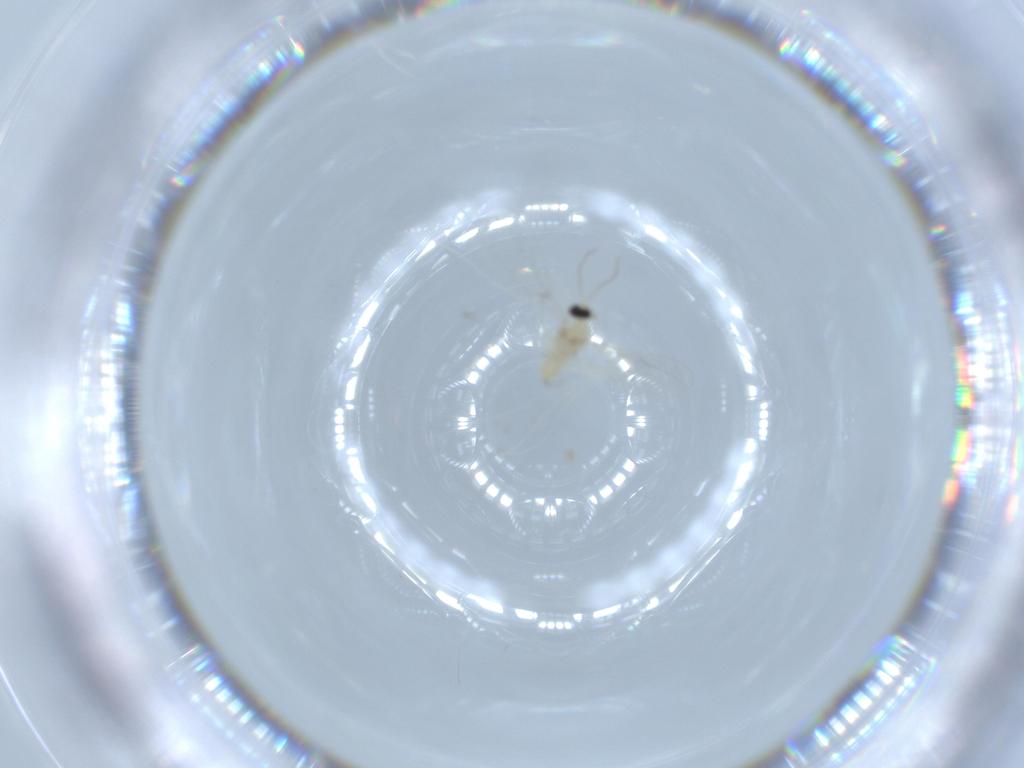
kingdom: Animalia
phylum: Arthropoda
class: Insecta
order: Diptera
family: Cecidomyiidae
